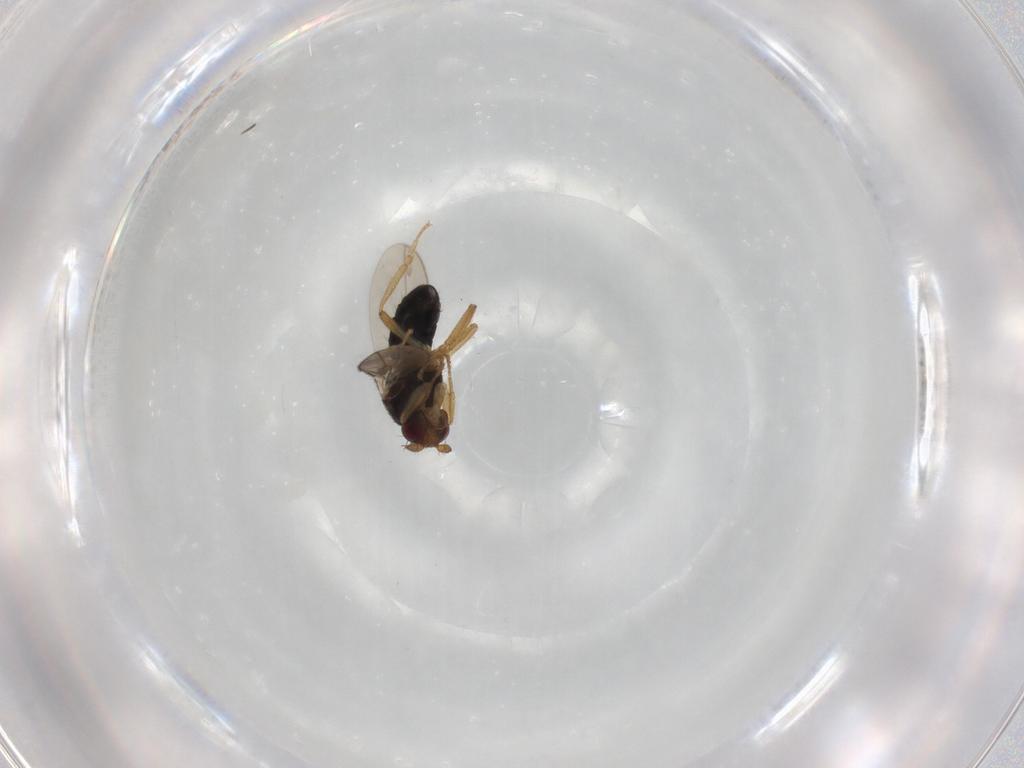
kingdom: Animalia
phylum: Arthropoda
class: Insecta
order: Diptera
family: Sphaeroceridae
